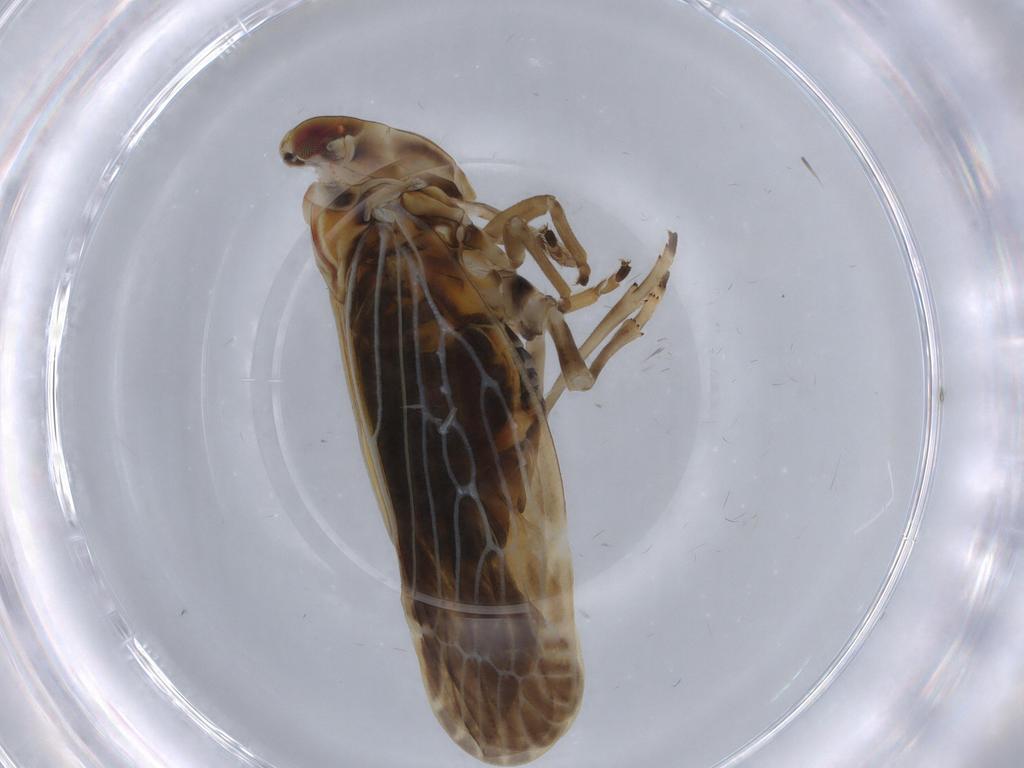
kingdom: Animalia
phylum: Arthropoda
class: Insecta
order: Hemiptera
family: Derbidae
